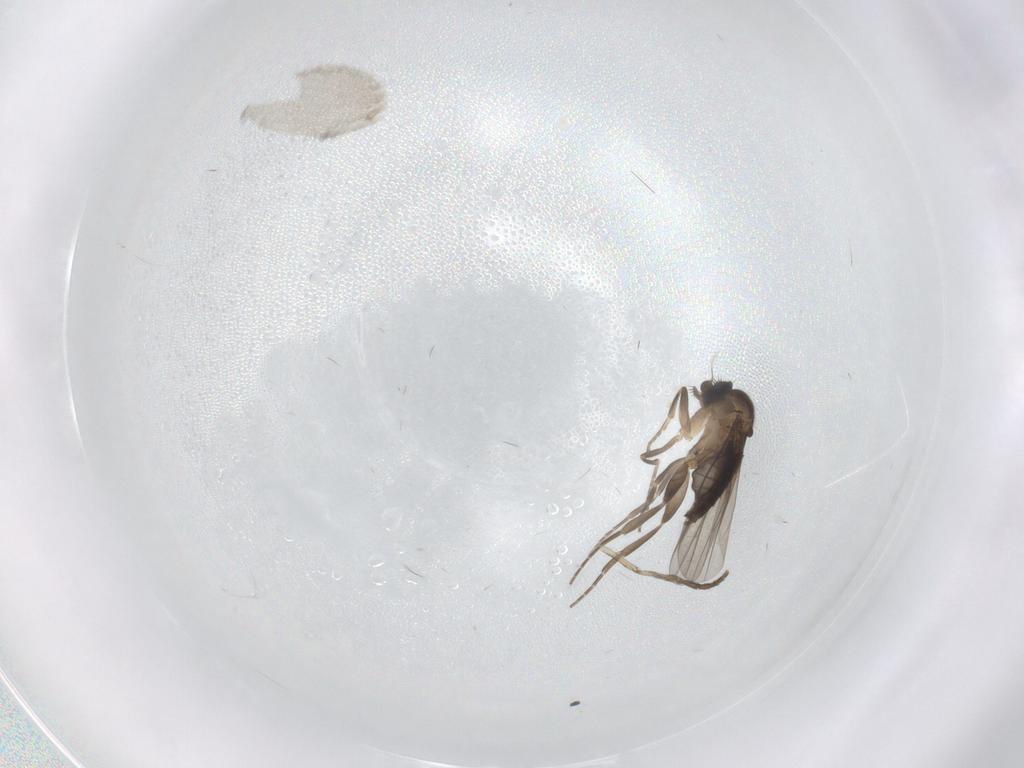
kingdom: Animalia
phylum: Arthropoda
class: Insecta
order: Diptera
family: Phoridae
